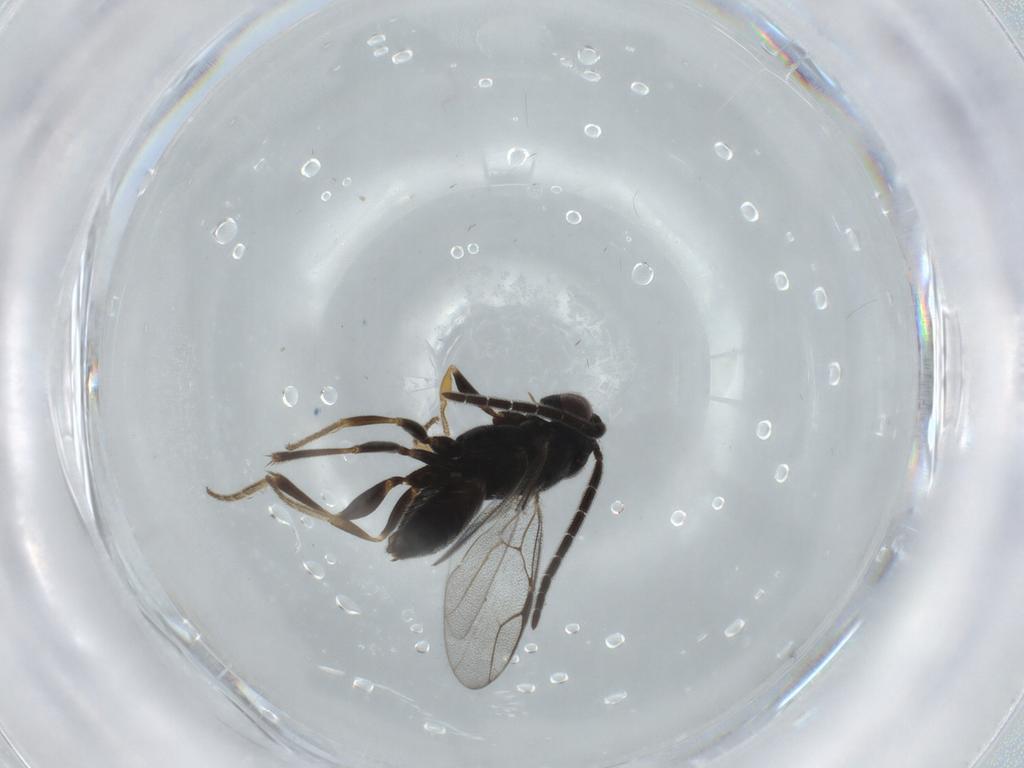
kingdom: Animalia
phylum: Arthropoda
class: Insecta
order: Hymenoptera
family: Dryinidae
